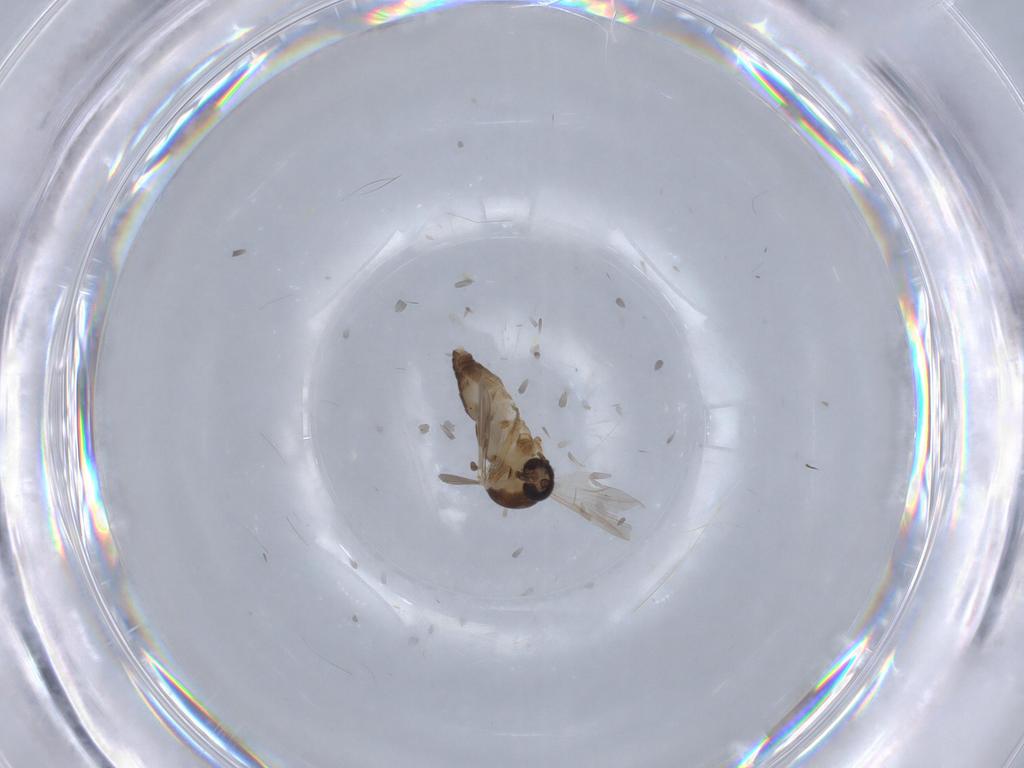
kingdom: Animalia
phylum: Arthropoda
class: Insecta
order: Diptera
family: Ceratopogonidae
